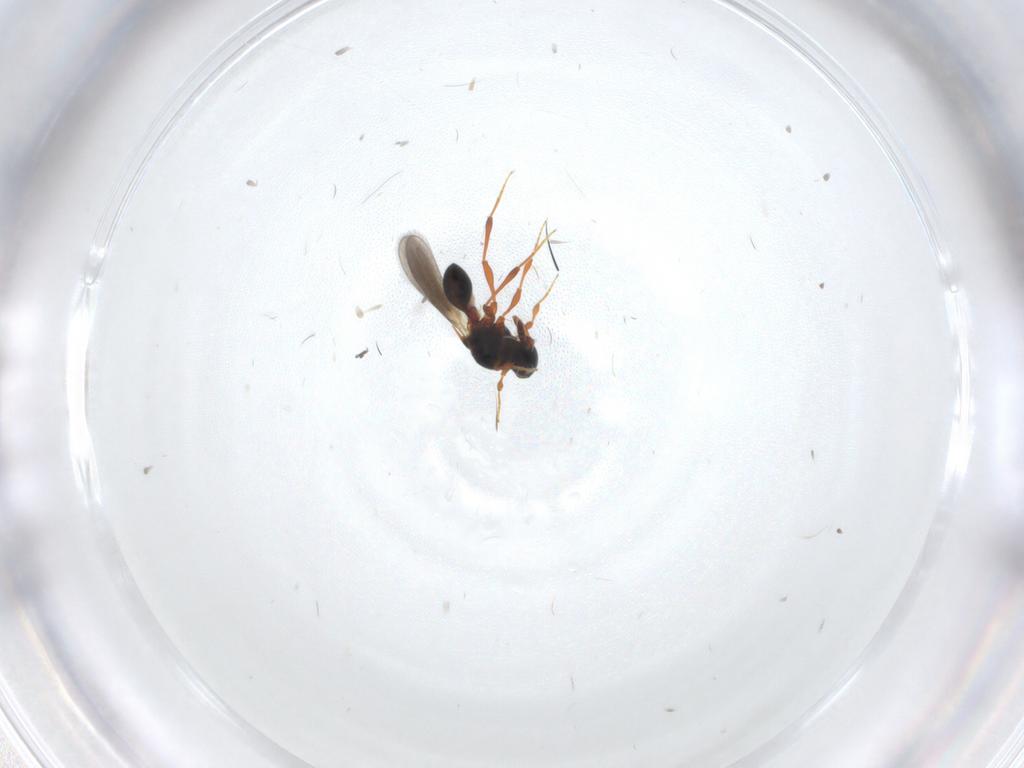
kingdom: Animalia
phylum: Arthropoda
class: Insecta
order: Hymenoptera
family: Platygastridae
